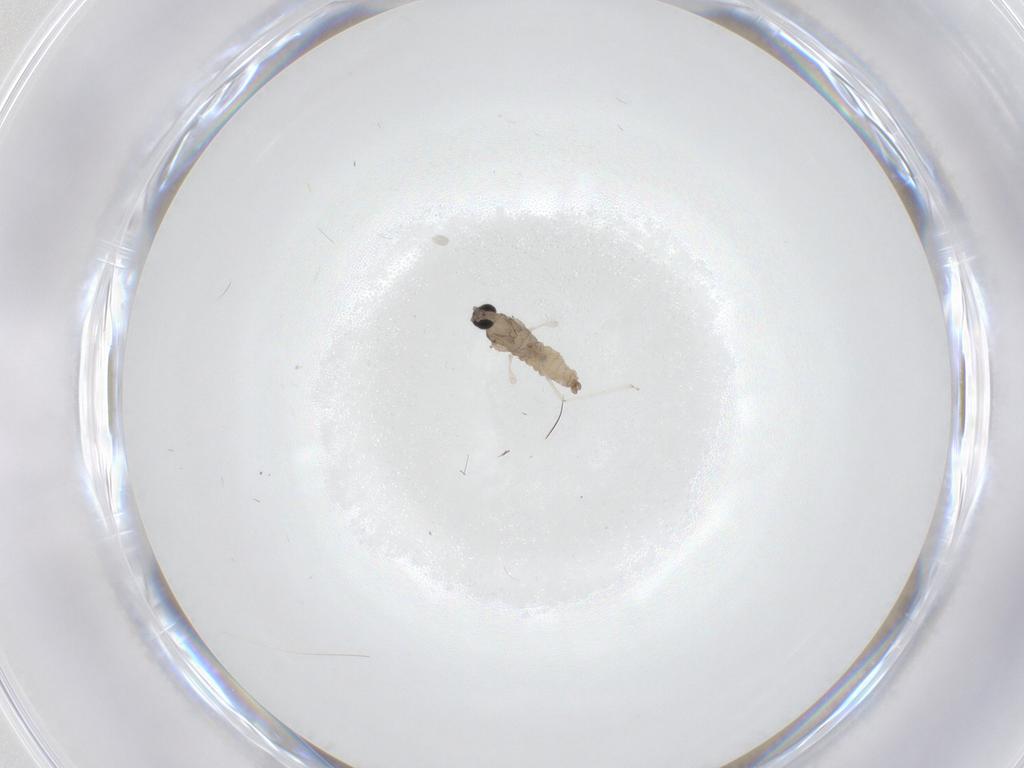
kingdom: Animalia
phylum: Arthropoda
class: Insecta
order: Diptera
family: Cecidomyiidae
